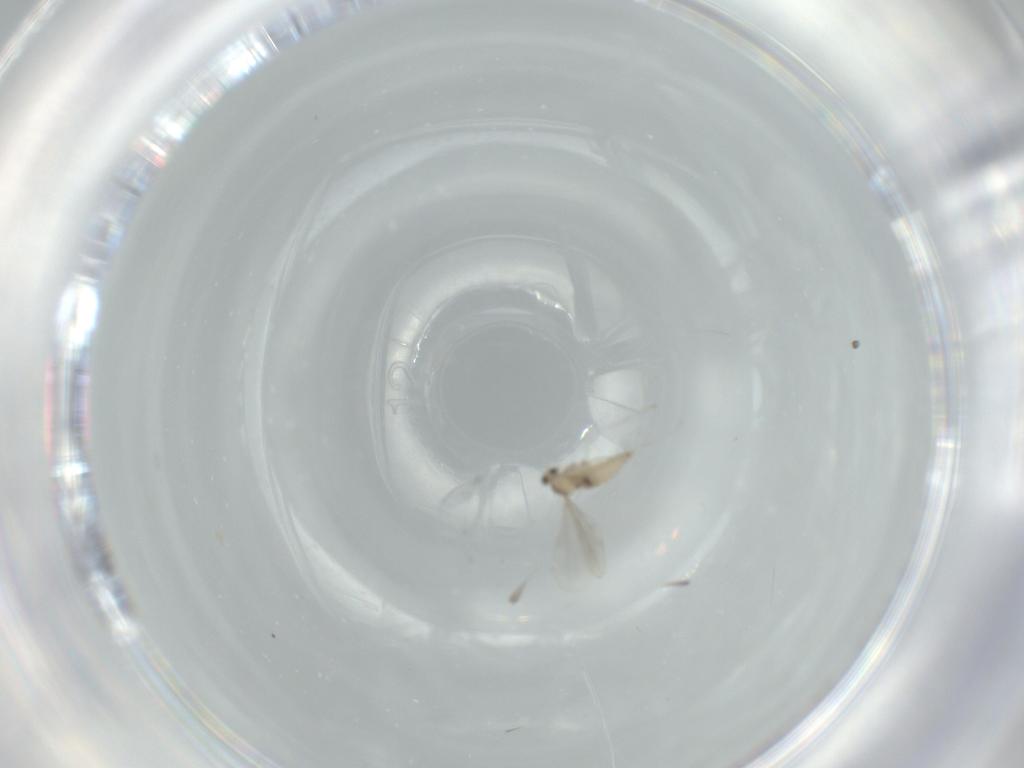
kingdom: Animalia
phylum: Arthropoda
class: Insecta
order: Diptera
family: Cecidomyiidae
